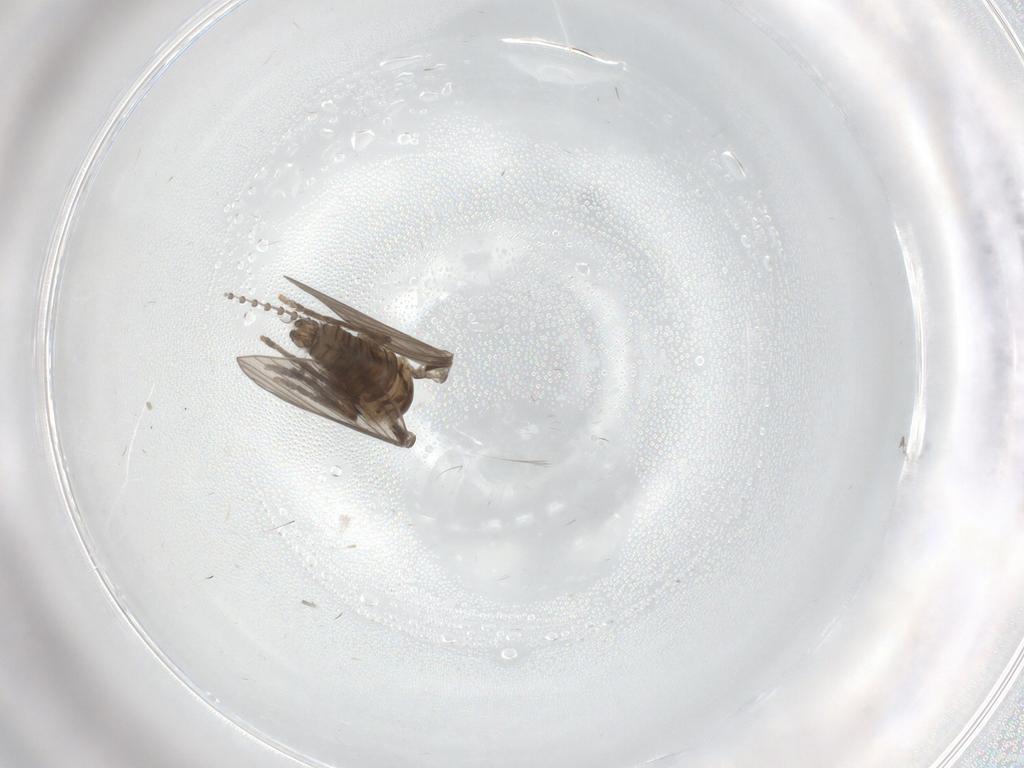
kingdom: Animalia
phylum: Arthropoda
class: Insecta
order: Diptera
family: Psychodidae
